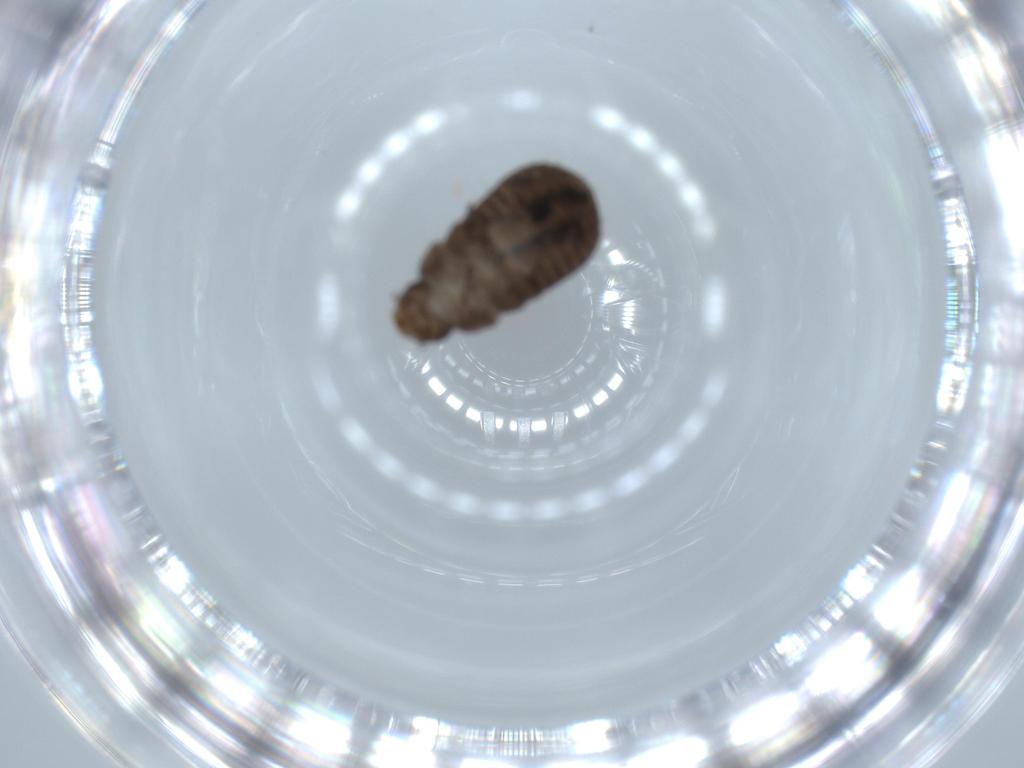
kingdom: Animalia
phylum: Arthropoda
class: Insecta
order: Coleoptera
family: Tenebrionidae
